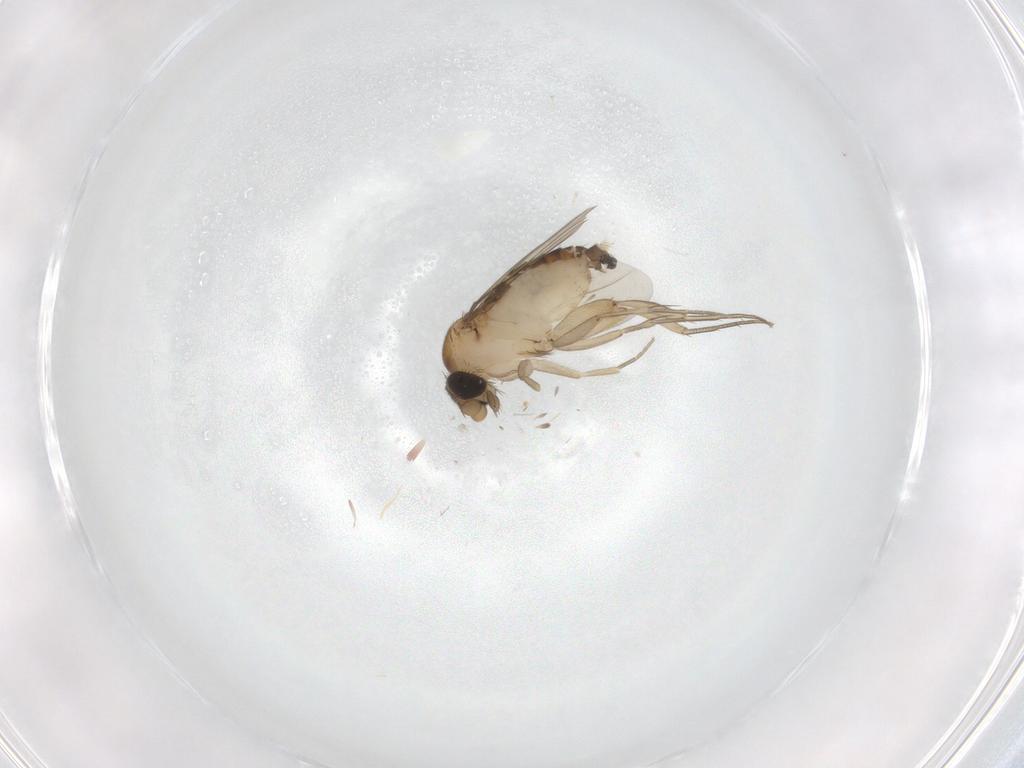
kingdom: Animalia
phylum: Arthropoda
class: Insecta
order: Diptera
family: Phoridae
